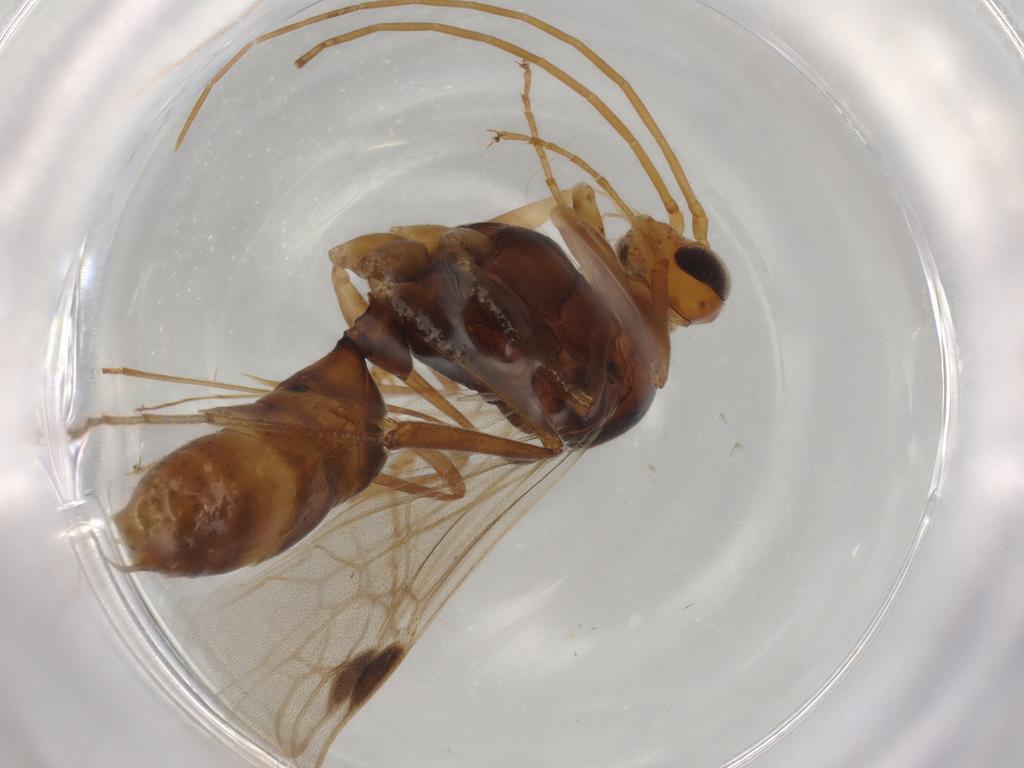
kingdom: Animalia
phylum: Arthropoda
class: Insecta
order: Hymenoptera
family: Formicidae
